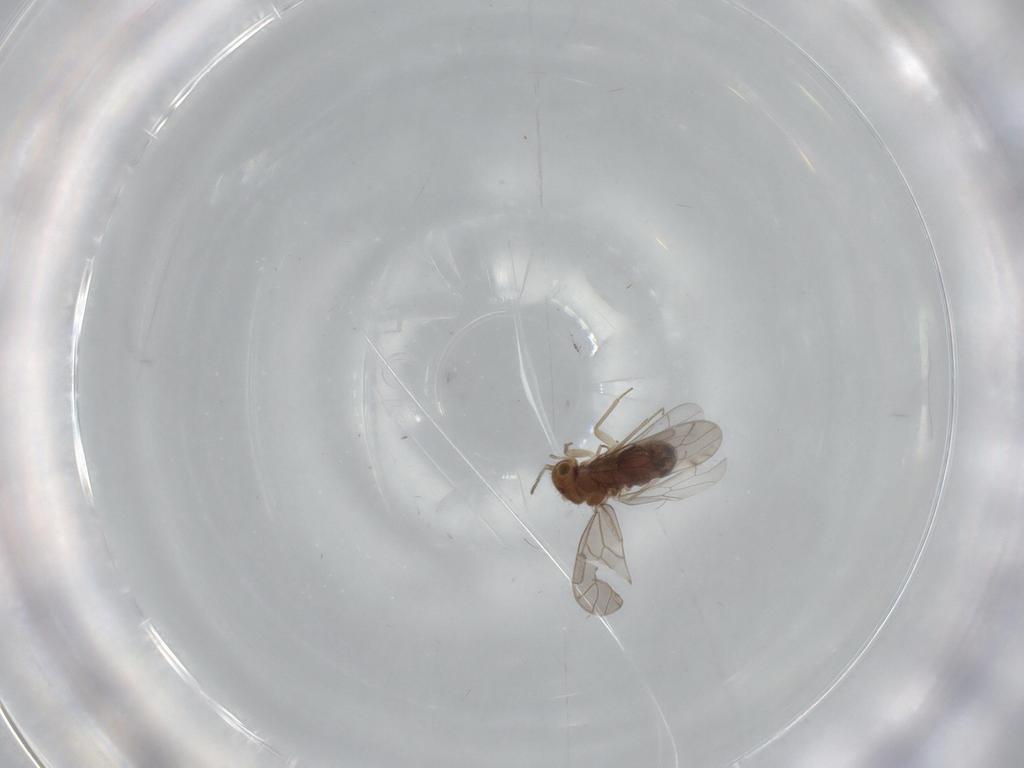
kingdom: Animalia
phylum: Arthropoda
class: Insecta
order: Psocodea
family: Ectopsocidae
